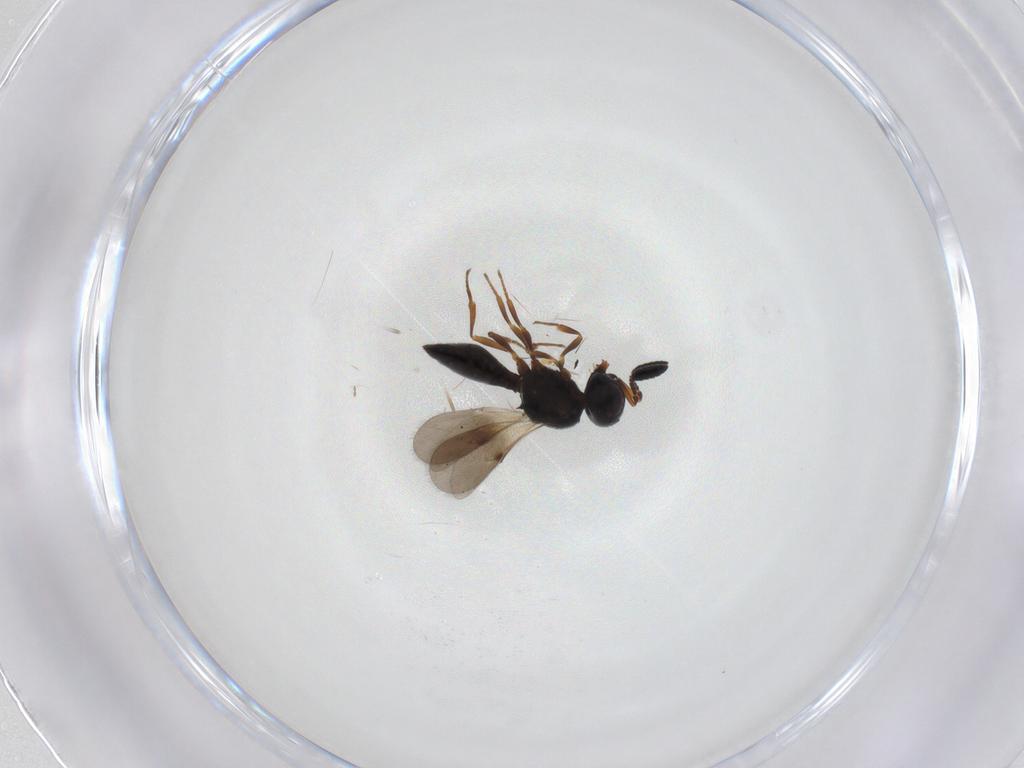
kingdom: Animalia
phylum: Arthropoda
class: Insecta
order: Hymenoptera
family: Scelionidae
